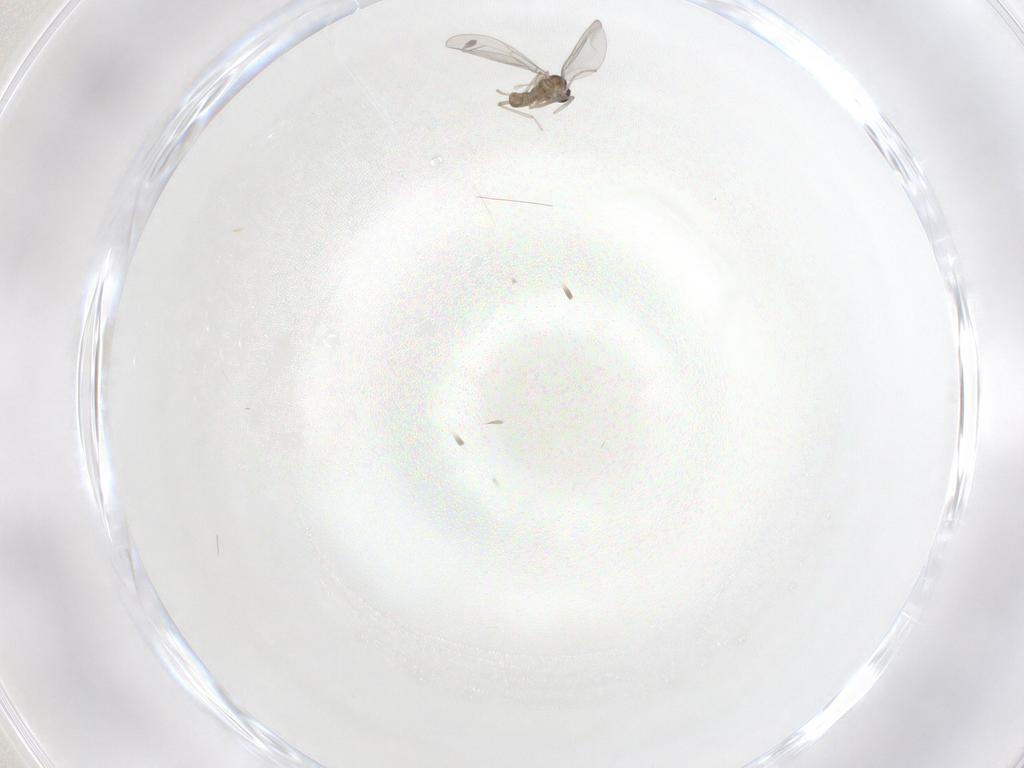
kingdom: Animalia
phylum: Arthropoda
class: Insecta
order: Diptera
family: Cecidomyiidae
